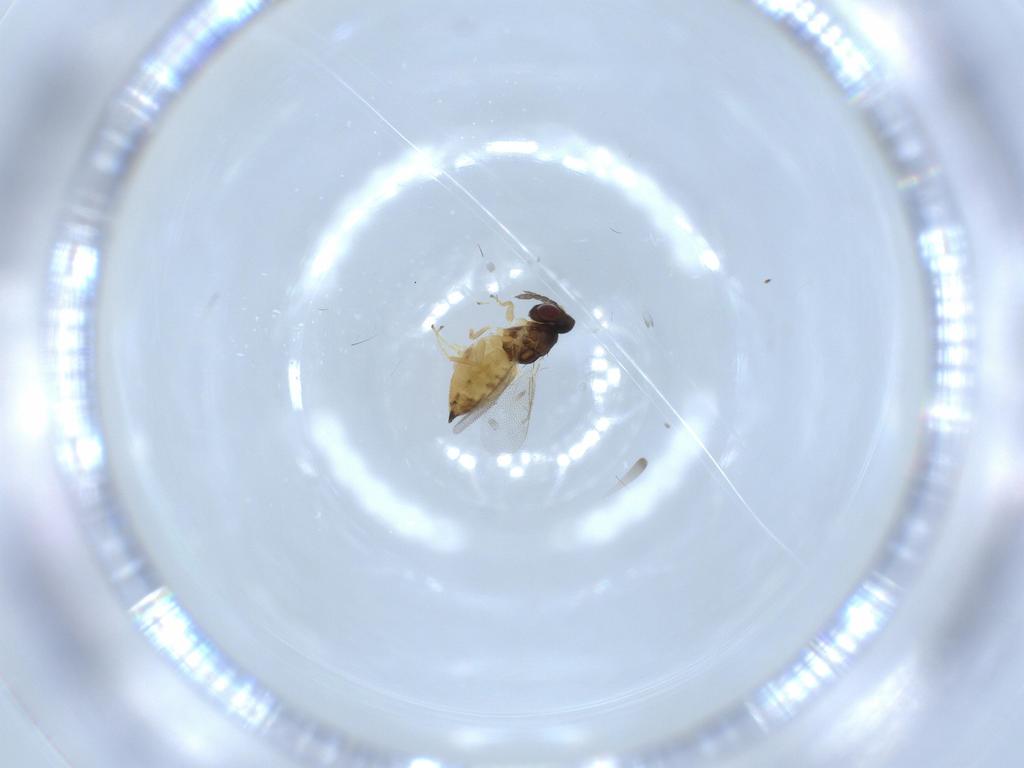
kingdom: Animalia
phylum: Arthropoda
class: Insecta
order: Hymenoptera
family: Eulophidae
